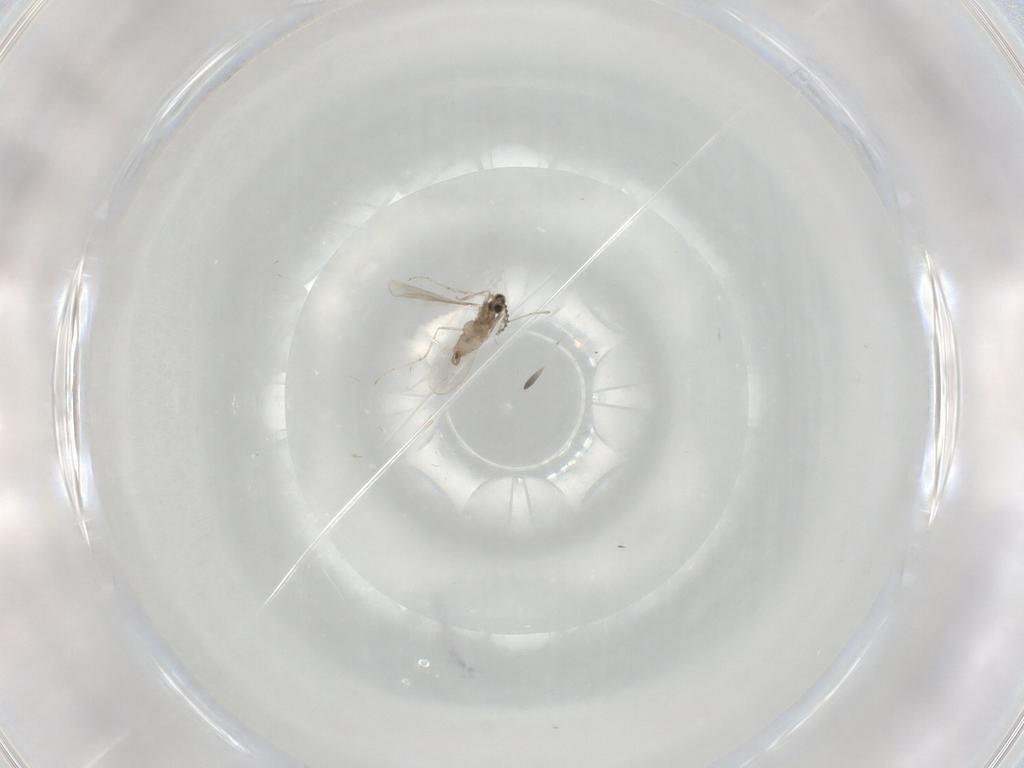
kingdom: Animalia
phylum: Arthropoda
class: Insecta
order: Diptera
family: Cecidomyiidae
